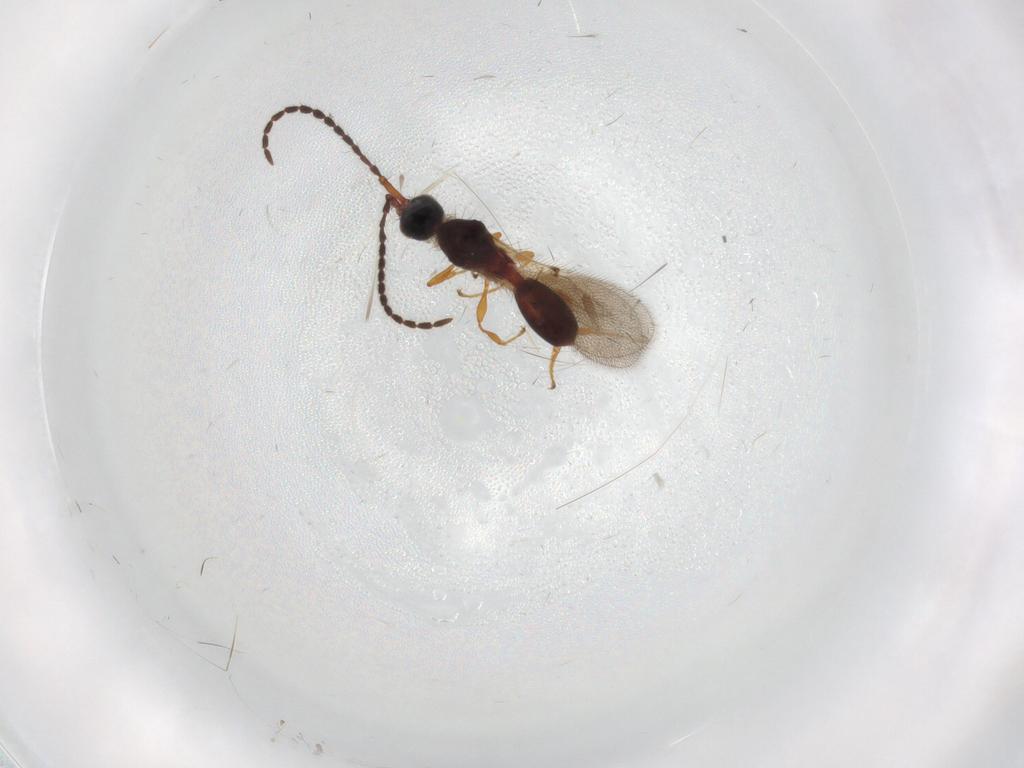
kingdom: Animalia
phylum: Arthropoda
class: Insecta
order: Hymenoptera
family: Diapriidae
